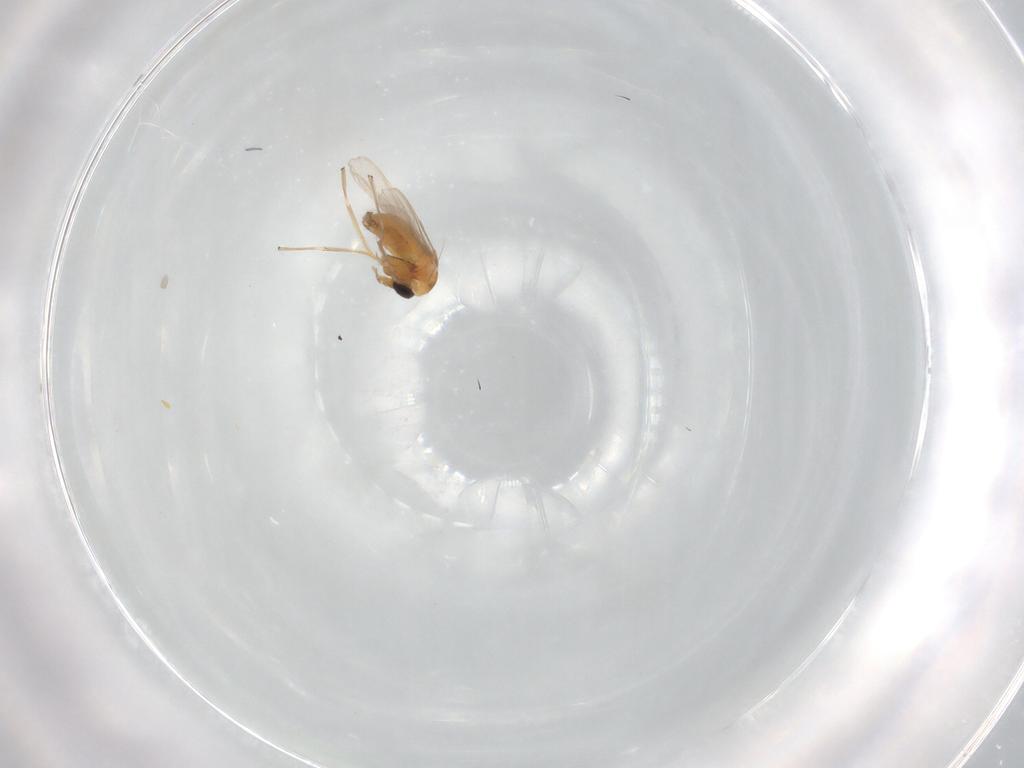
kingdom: Animalia
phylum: Arthropoda
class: Insecta
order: Diptera
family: Chironomidae
